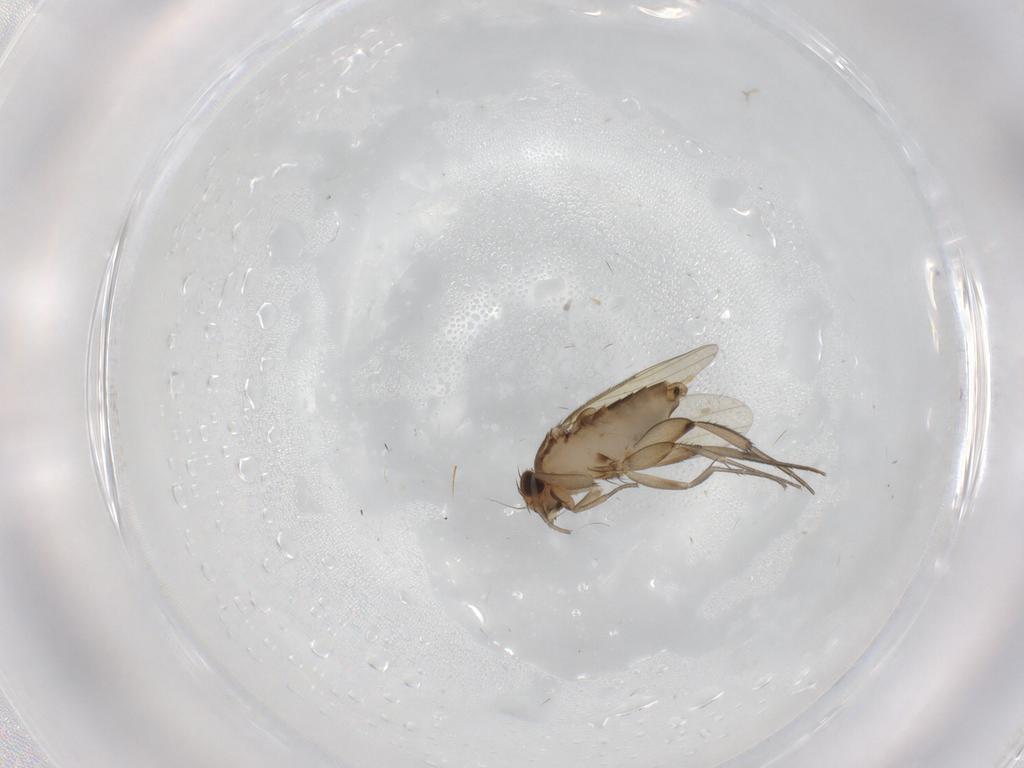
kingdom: Animalia
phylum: Arthropoda
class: Insecta
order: Diptera
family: Phoridae
